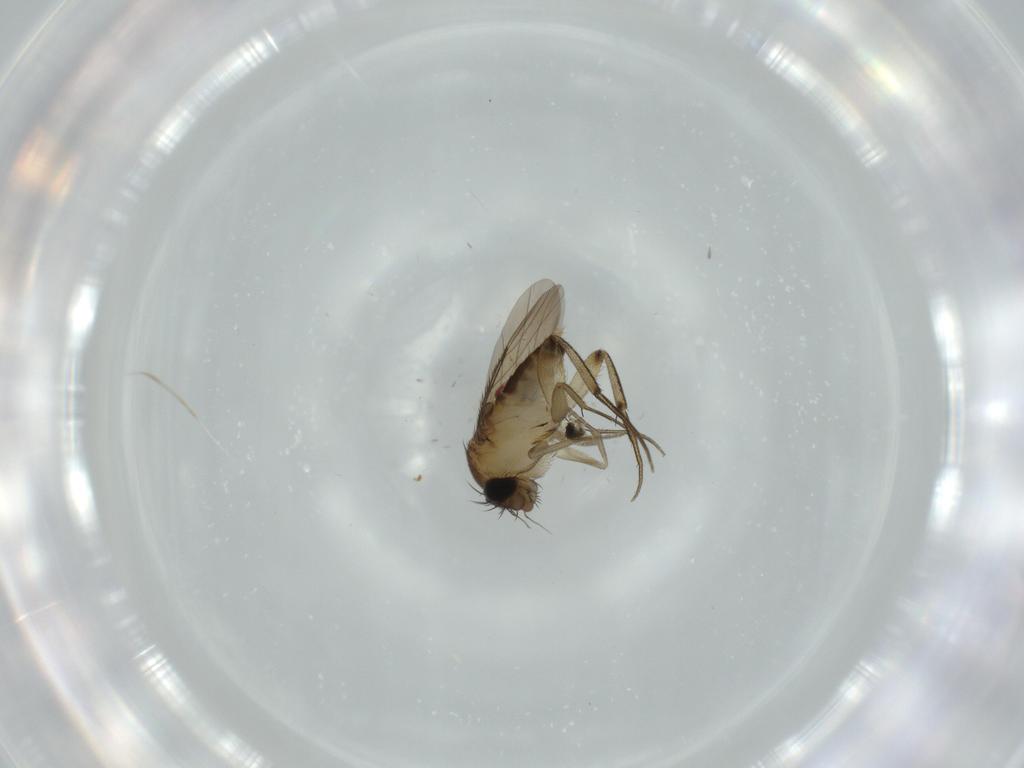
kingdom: Animalia
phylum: Arthropoda
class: Insecta
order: Diptera
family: Phoridae
